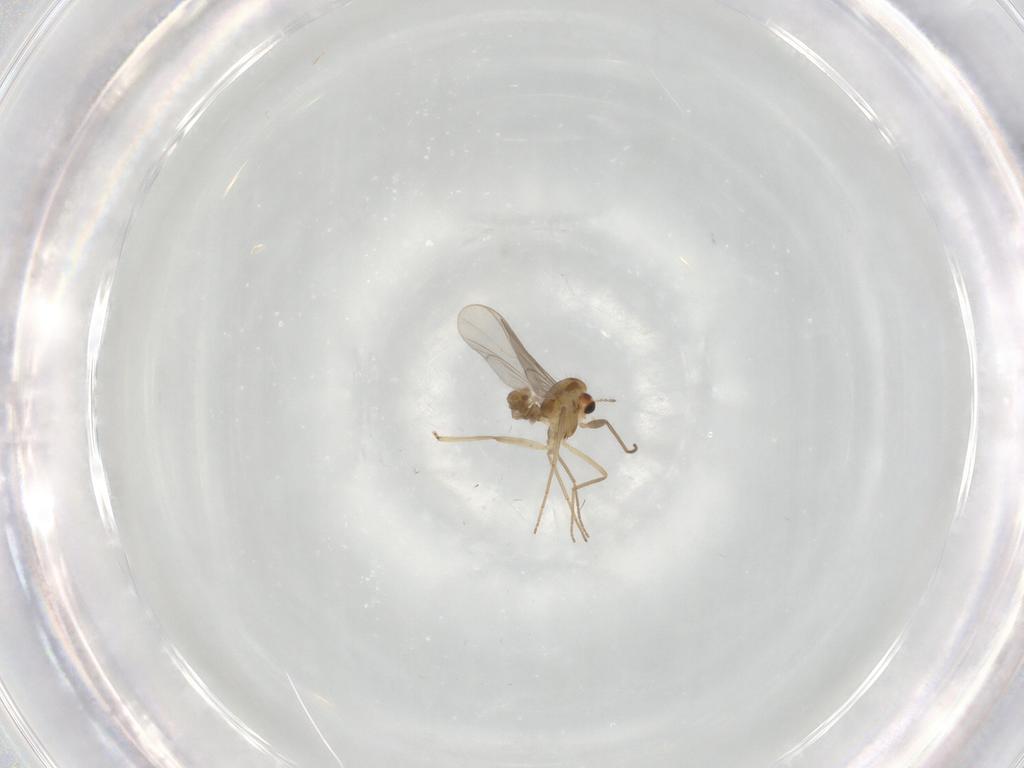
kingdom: Animalia
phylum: Arthropoda
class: Insecta
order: Diptera
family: Chironomidae
